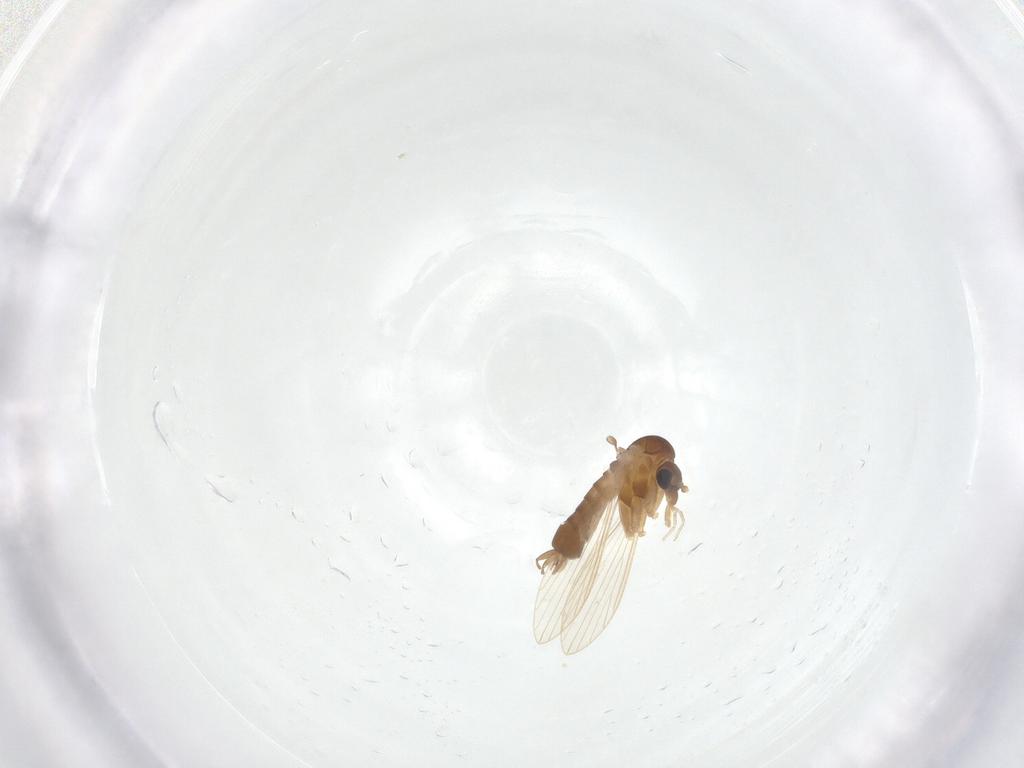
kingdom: Animalia
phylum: Arthropoda
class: Insecta
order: Diptera
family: Psychodidae
